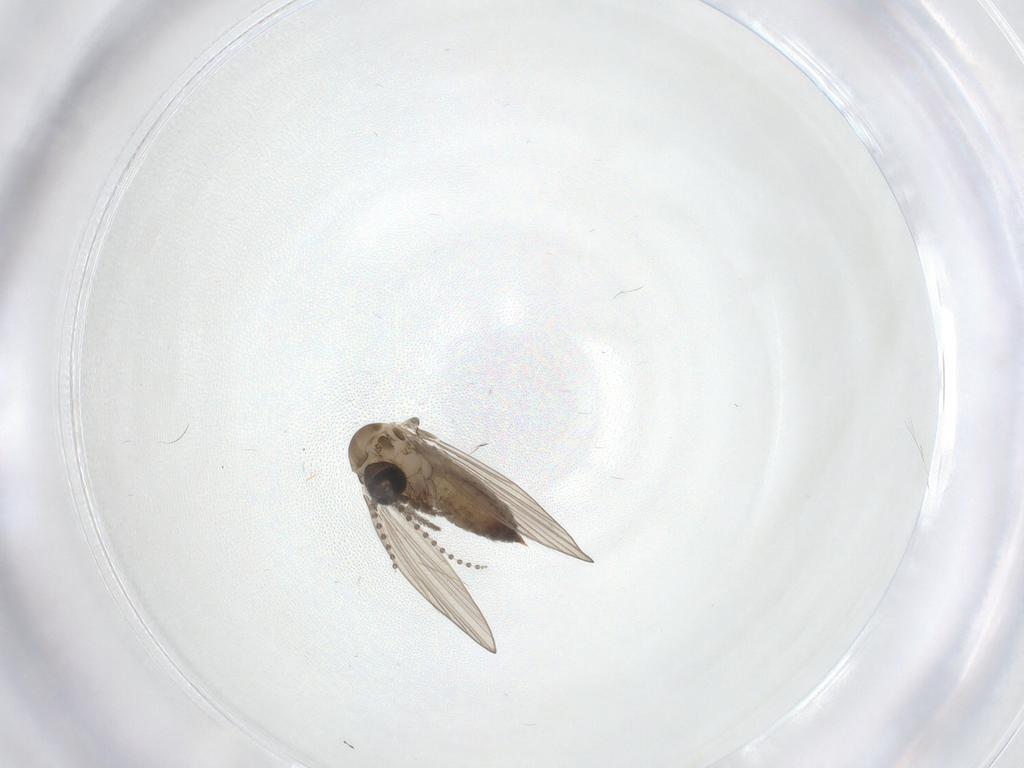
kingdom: Animalia
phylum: Arthropoda
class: Insecta
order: Diptera
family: Psychodidae
